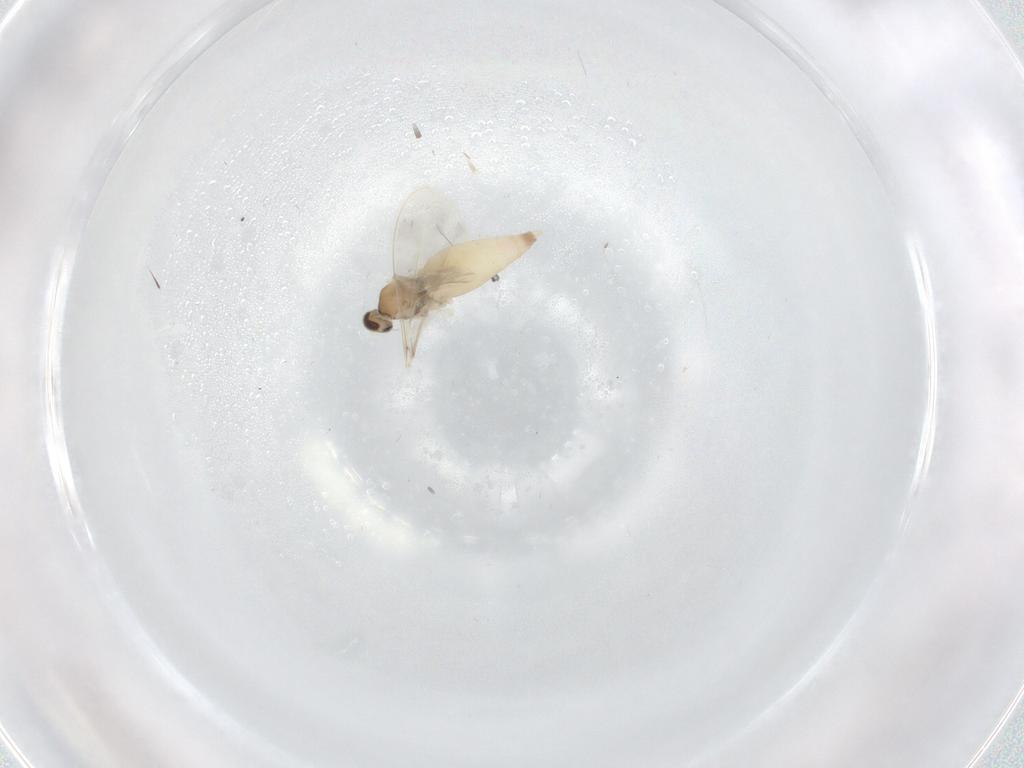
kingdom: Animalia
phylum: Arthropoda
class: Insecta
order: Diptera
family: Cecidomyiidae
